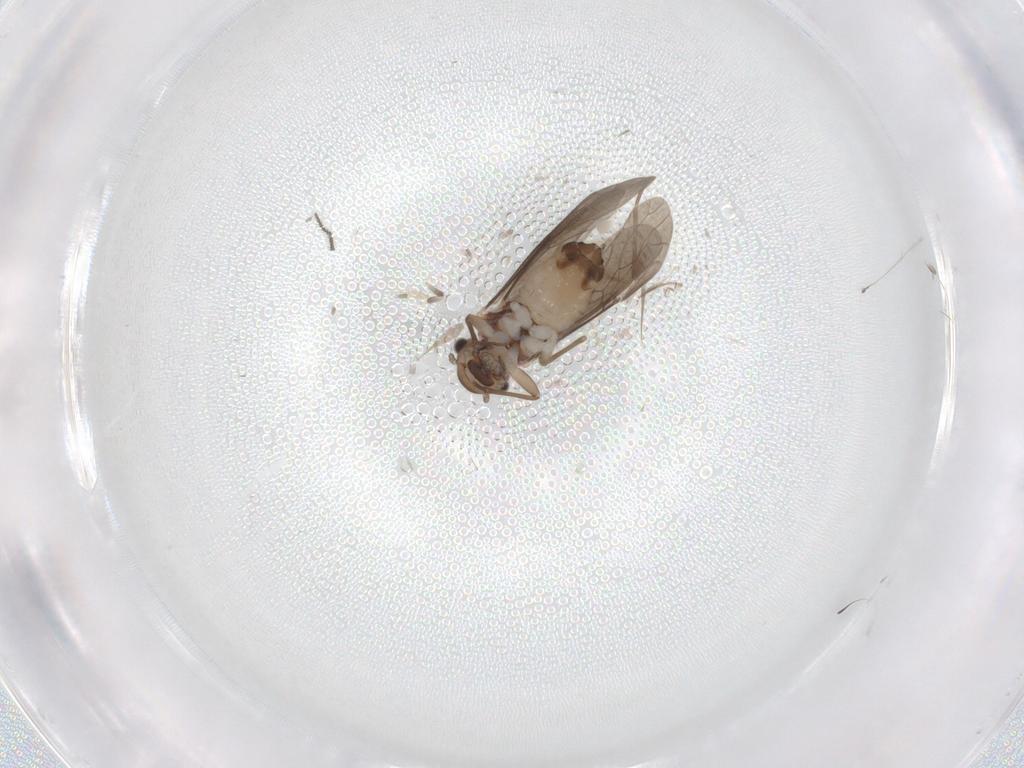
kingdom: Animalia
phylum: Arthropoda
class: Insecta
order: Psocodea
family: Caeciliusidae
